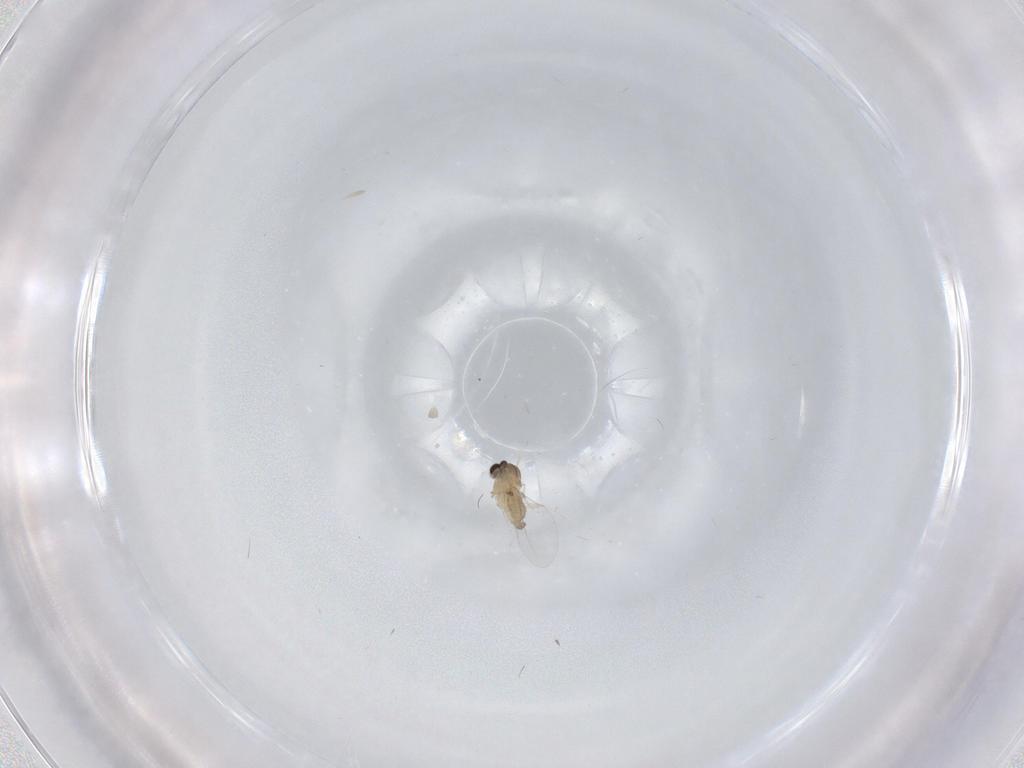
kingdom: Animalia
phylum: Arthropoda
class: Insecta
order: Diptera
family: Cecidomyiidae
